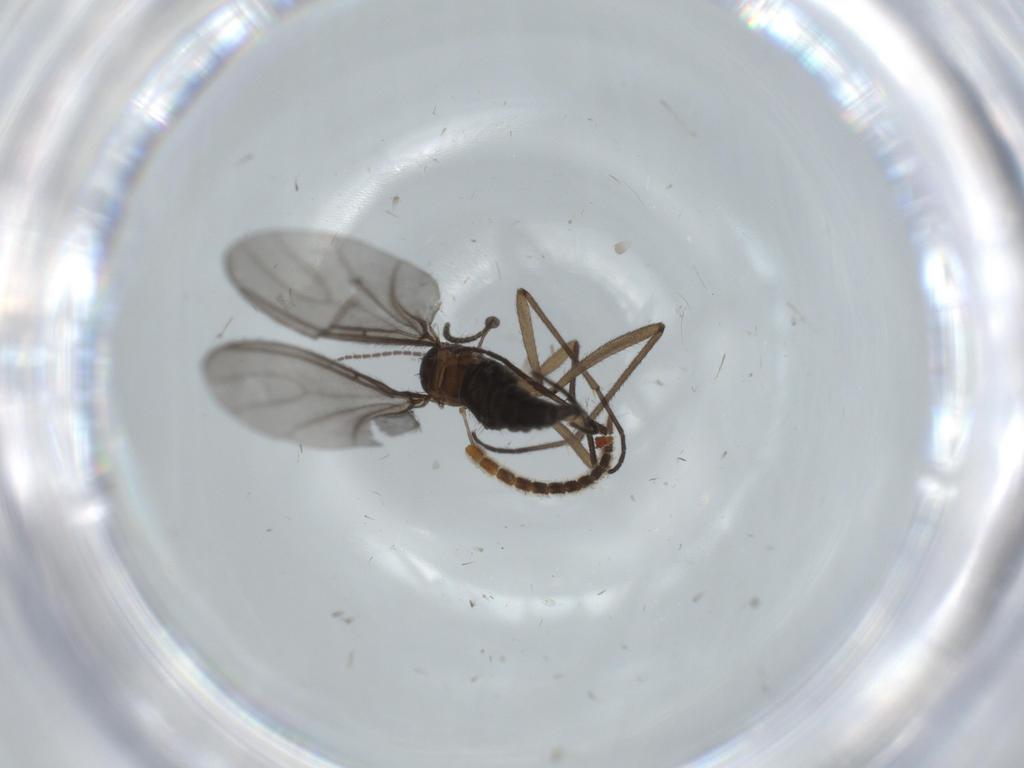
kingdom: Animalia
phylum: Arthropoda
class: Insecta
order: Diptera
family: Sciaridae
